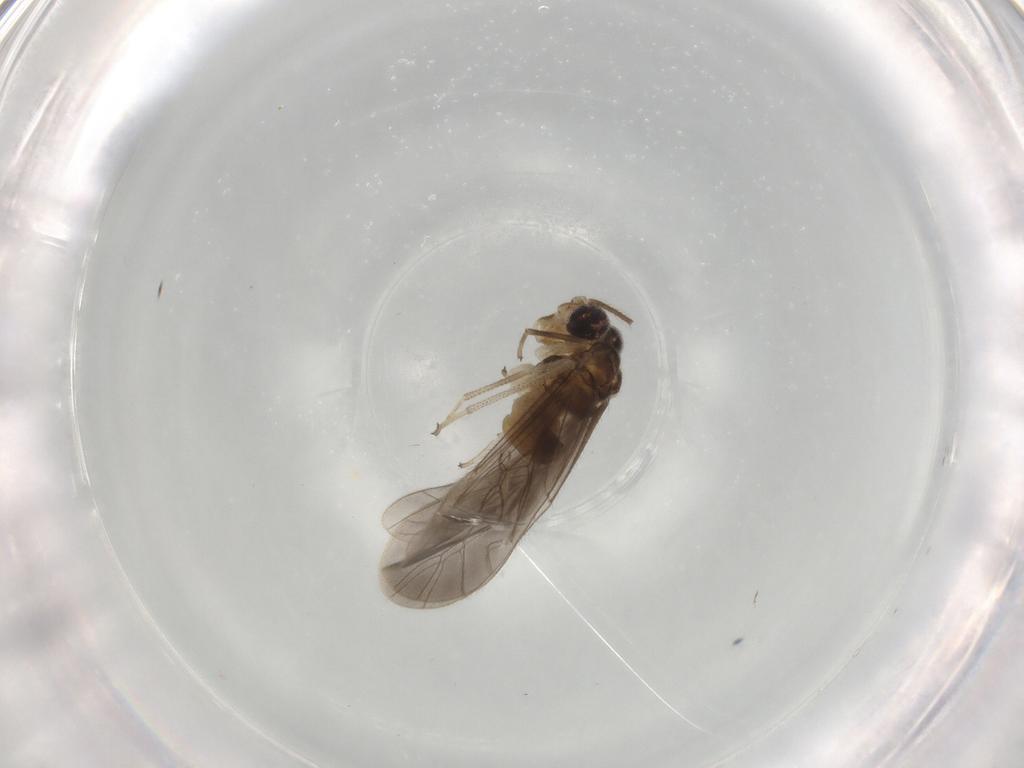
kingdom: Animalia
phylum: Arthropoda
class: Insecta
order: Psocodea
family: Caeciliusidae
